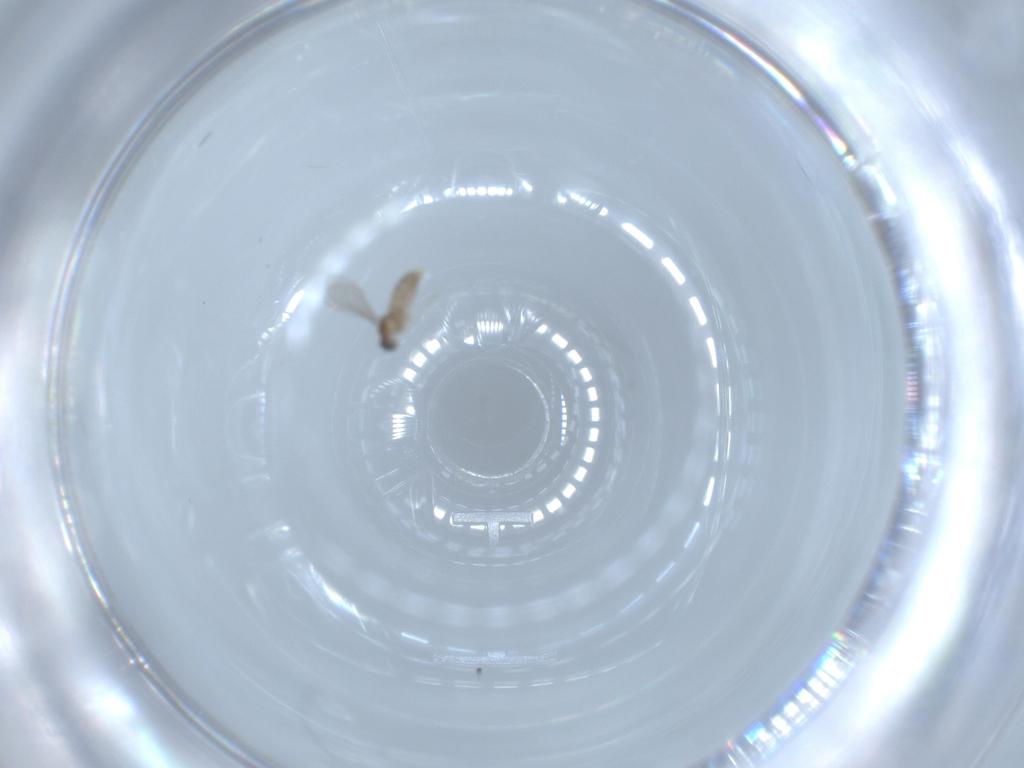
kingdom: Animalia
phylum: Arthropoda
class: Insecta
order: Diptera
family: Cecidomyiidae
